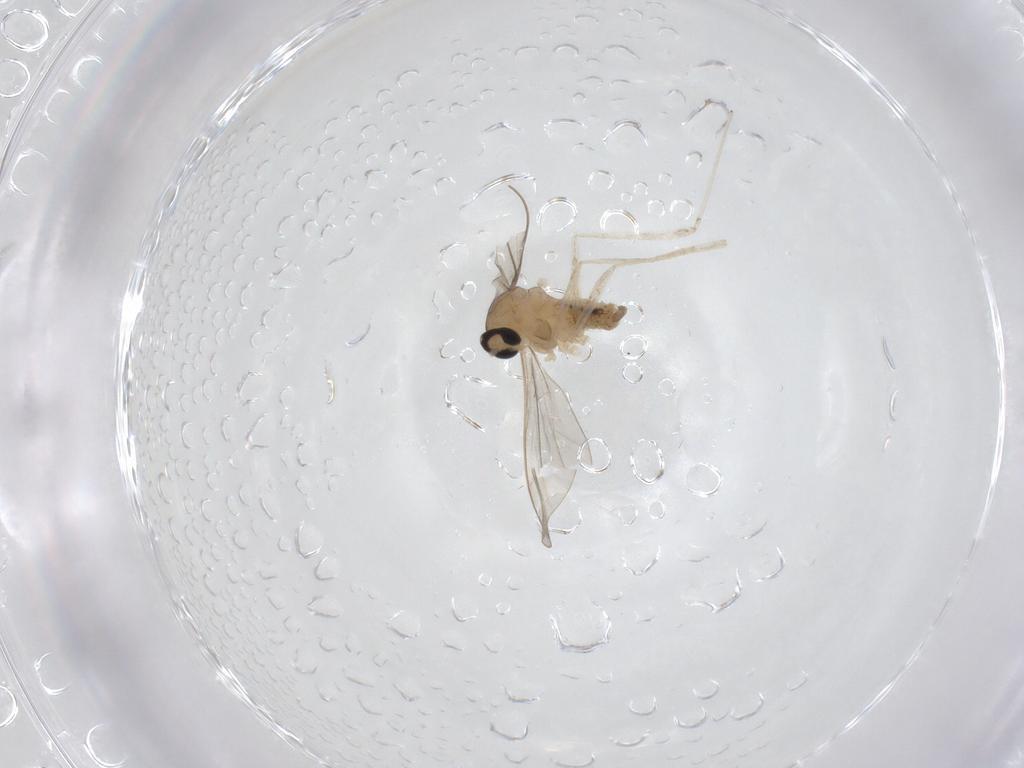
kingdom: Animalia
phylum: Arthropoda
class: Insecta
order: Diptera
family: Cecidomyiidae
